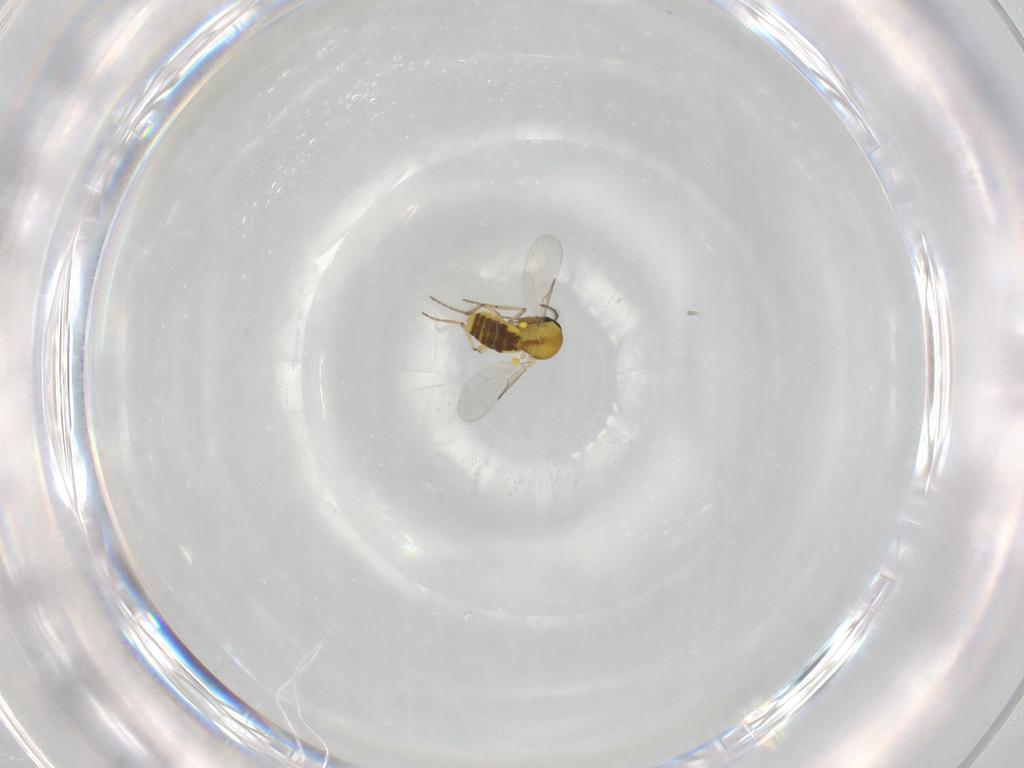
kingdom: Animalia
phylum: Arthropoda
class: Insecta
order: Diptera
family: Ceratopogonidae
